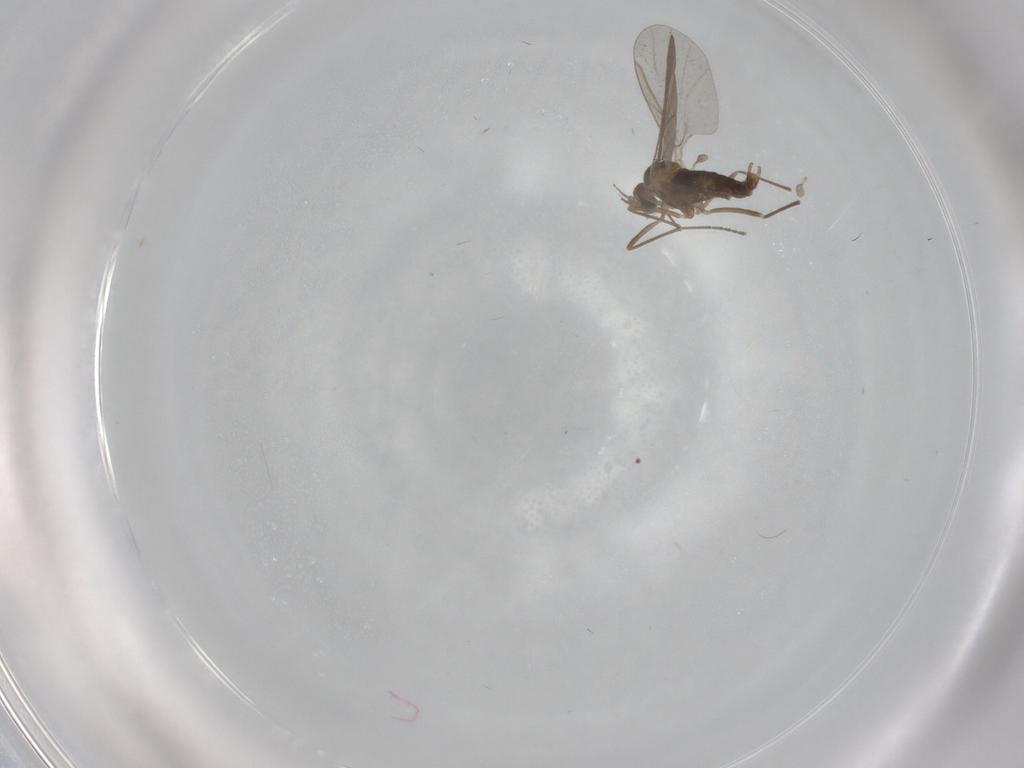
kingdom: Animalia
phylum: Arthropoda
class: Insecta
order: Diptera
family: Cecidomyiidae
